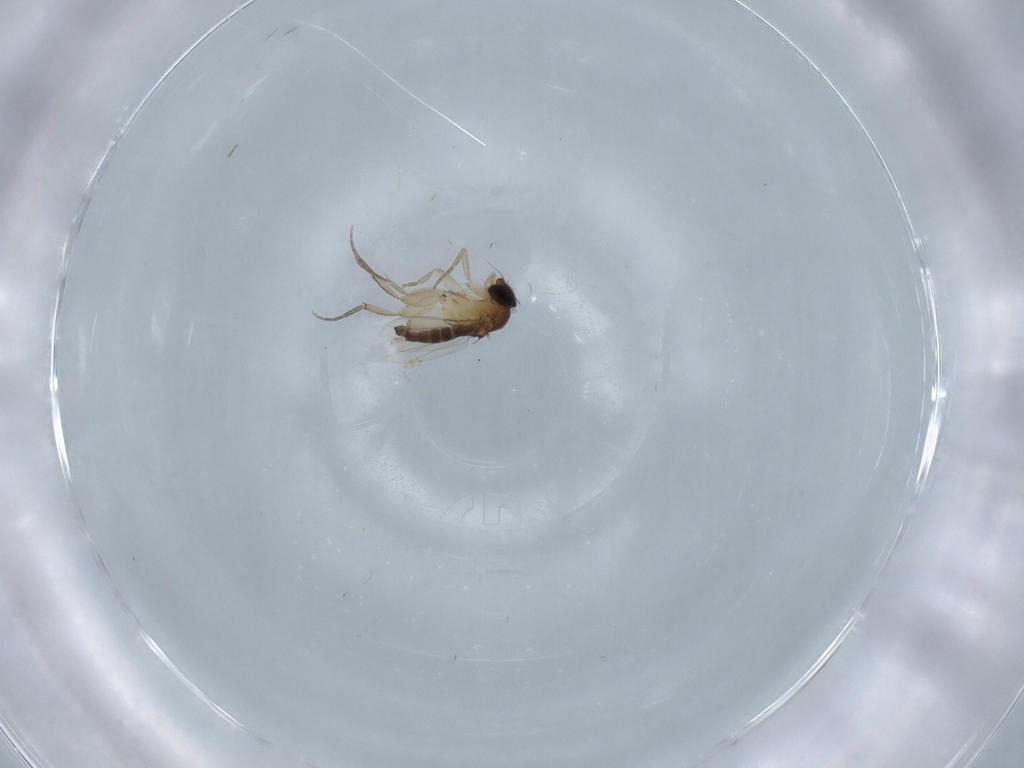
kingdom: Animalia
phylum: Arthropoda
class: Insecta
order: Diptera
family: Phoridae
